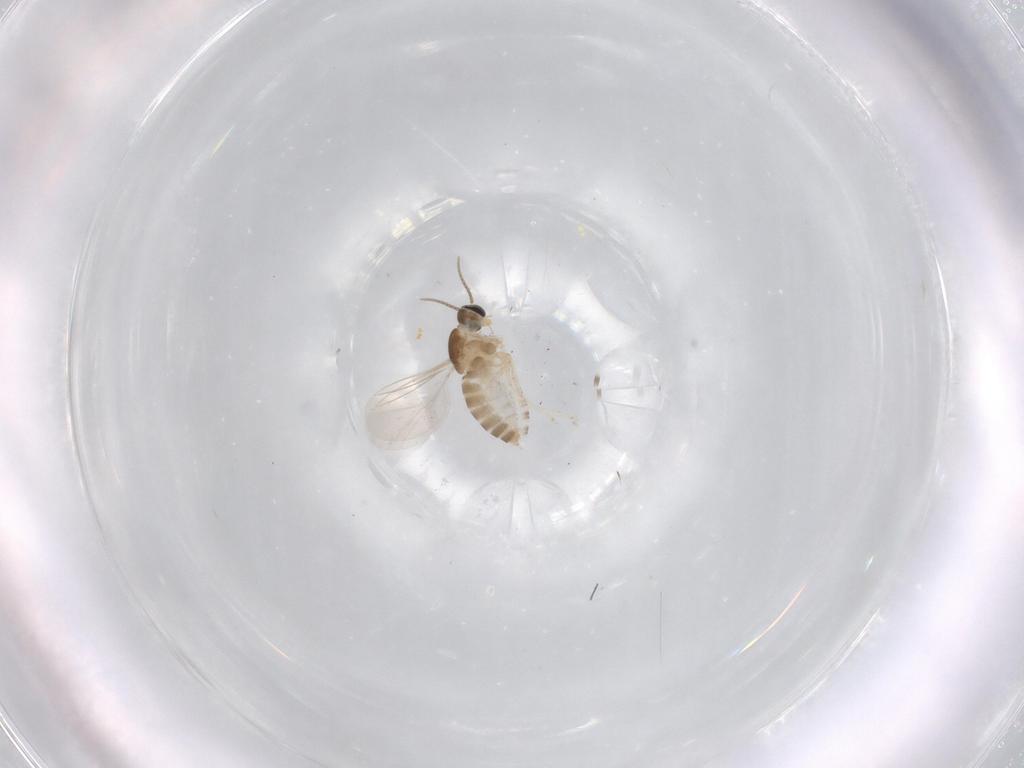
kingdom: Animalia
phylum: Arthropoda
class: Insecta
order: Diptera
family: Cecidomyiidae
